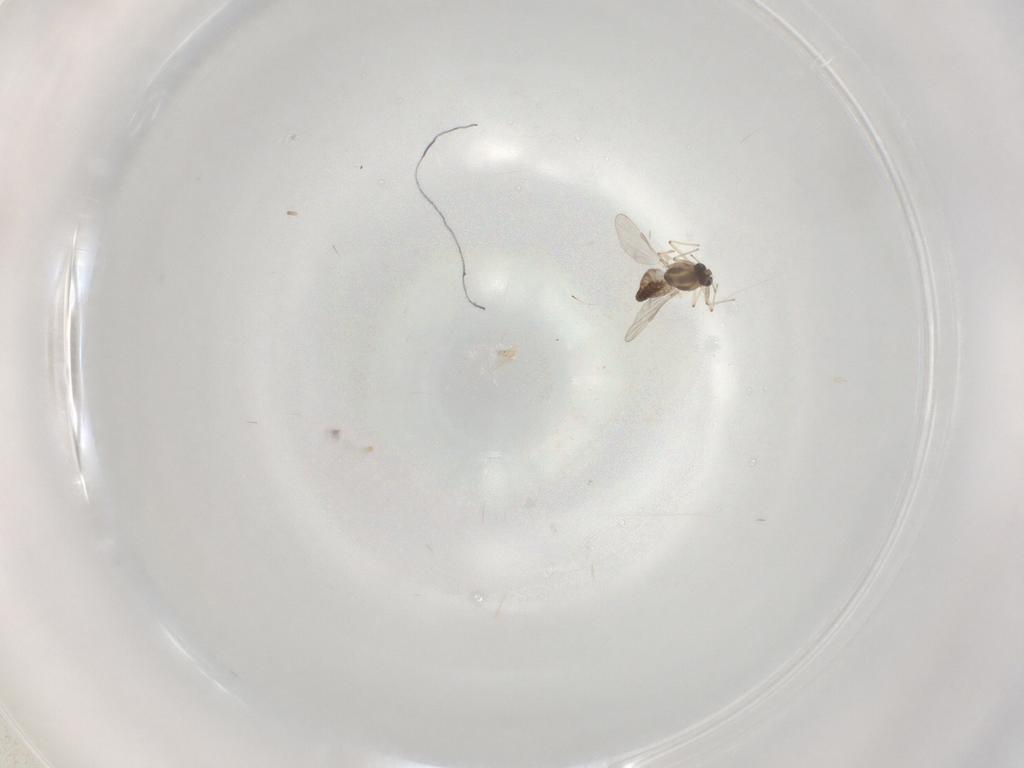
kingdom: Animalia
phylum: Arthropoda
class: Insecta
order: Diptera
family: Chironomidae
